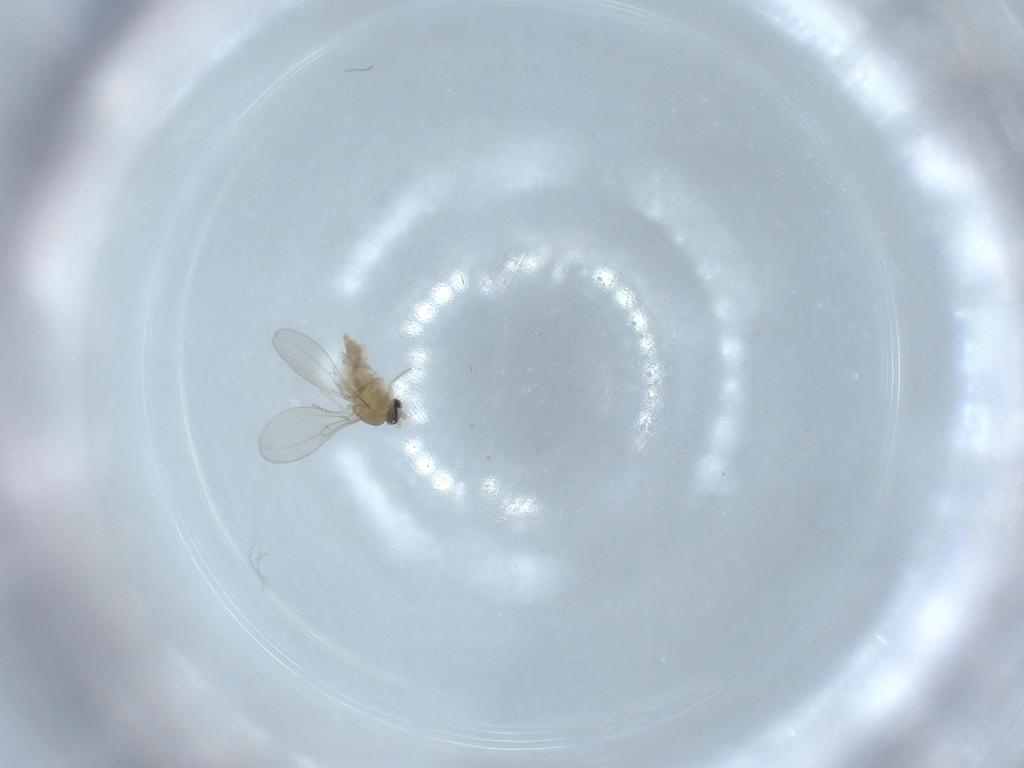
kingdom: Animalia
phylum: Arthropoda
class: Insecta
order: Diptera
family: Cecidomyiidae
